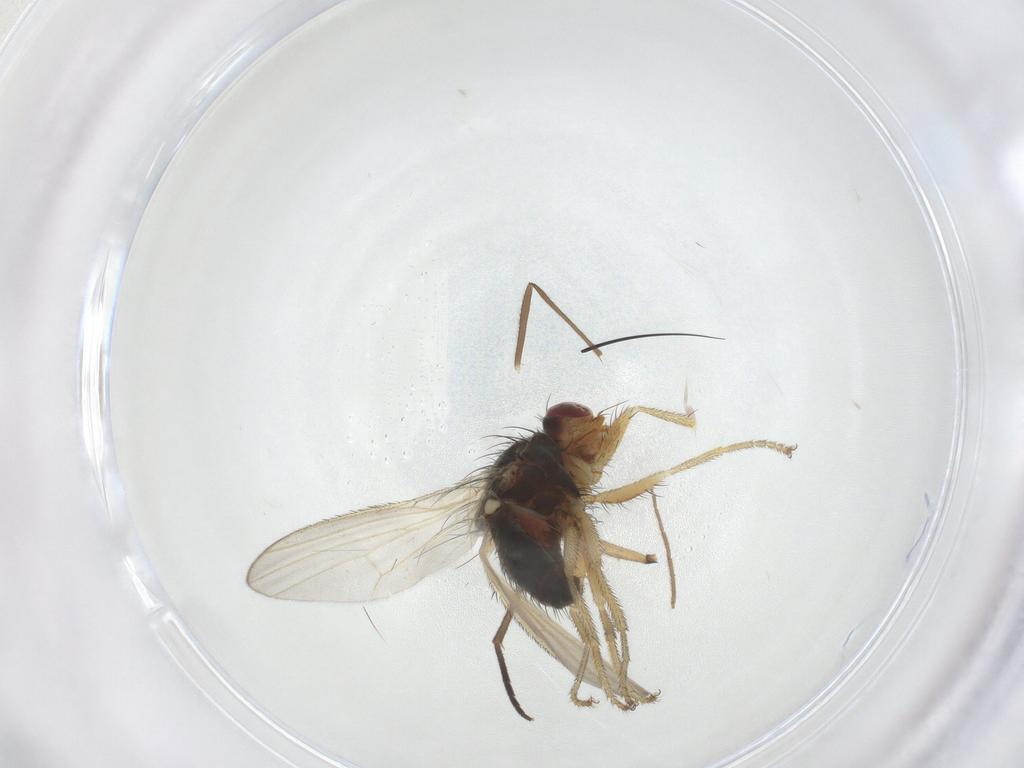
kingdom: Animalia
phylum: Arthropoda
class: Insecta
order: Diptera
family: Heleomyzidae
